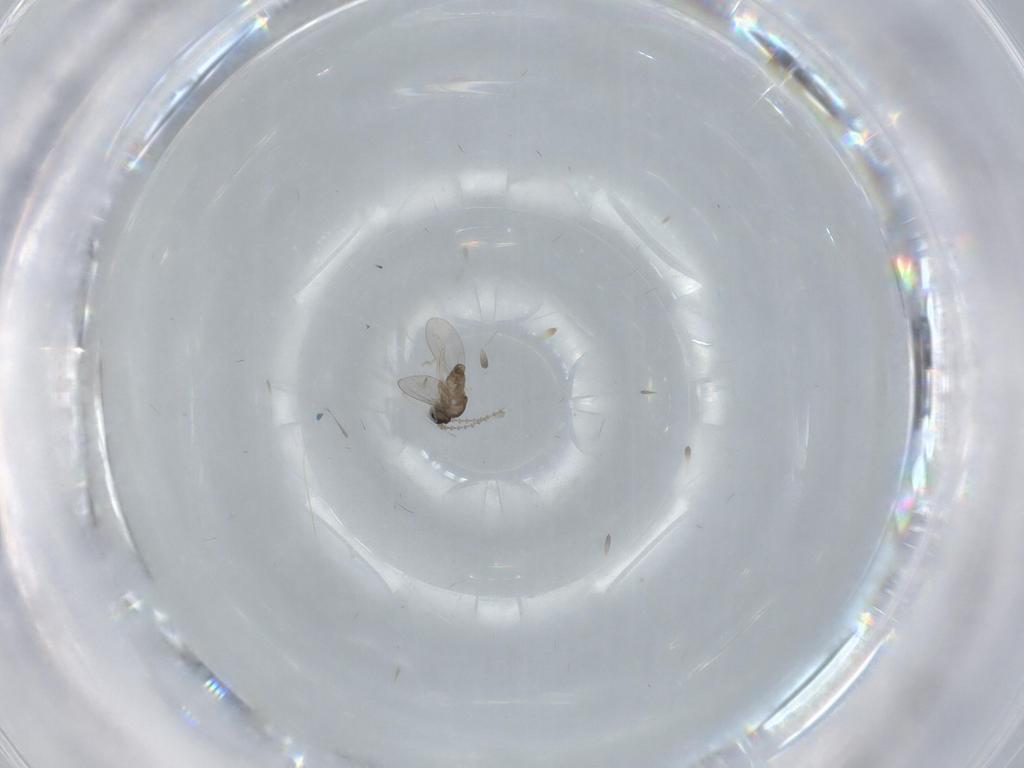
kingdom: Animalia
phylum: Arthropoda
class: Insecta
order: Diptera
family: Cecidomyiidae
